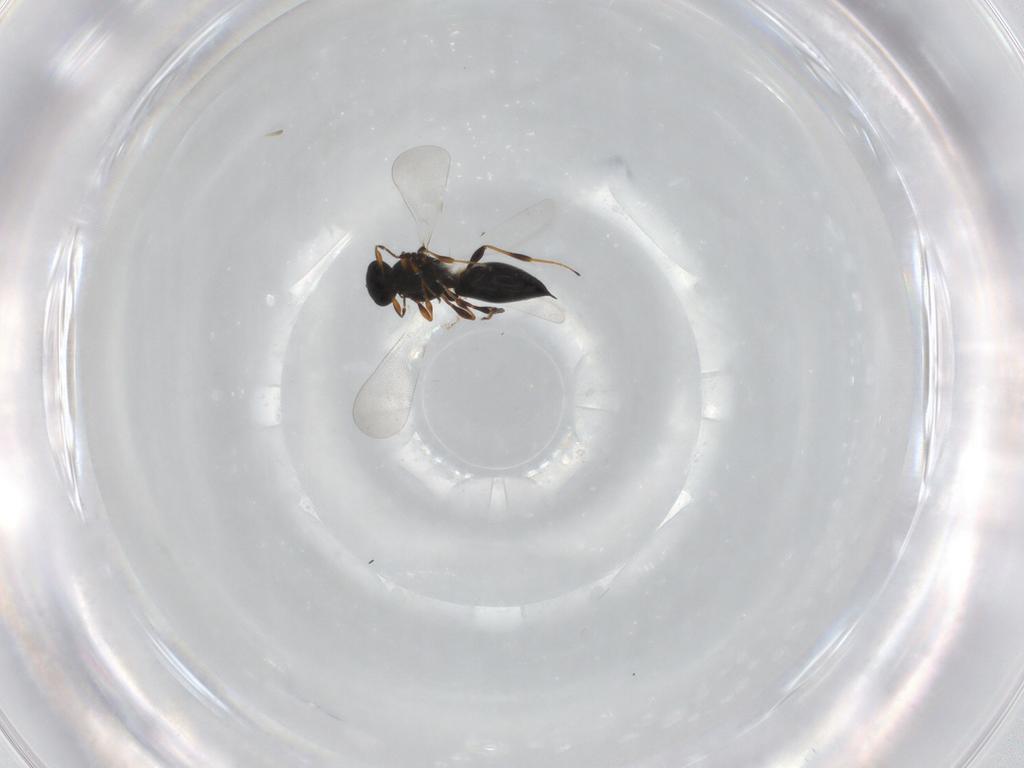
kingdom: Animalia
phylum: Arthropoda
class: Insecta
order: Hymenoptera
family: Platygastridae
